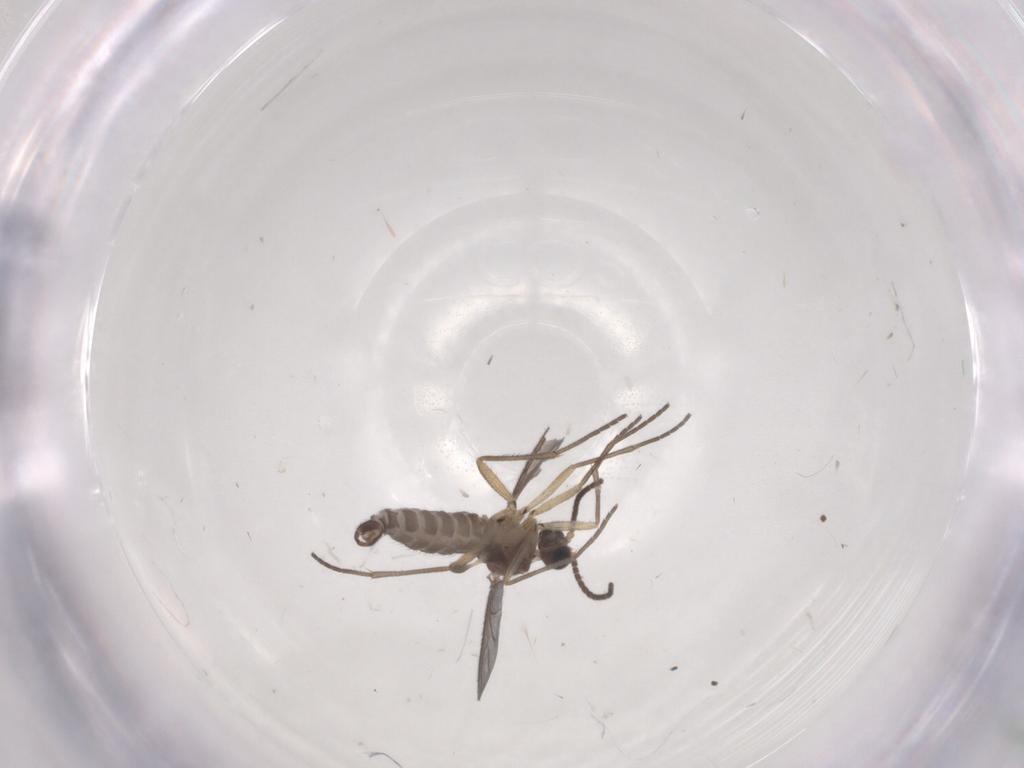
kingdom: Animalia
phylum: Arthropoda
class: Insecta
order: Diptera
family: Sciaridae
